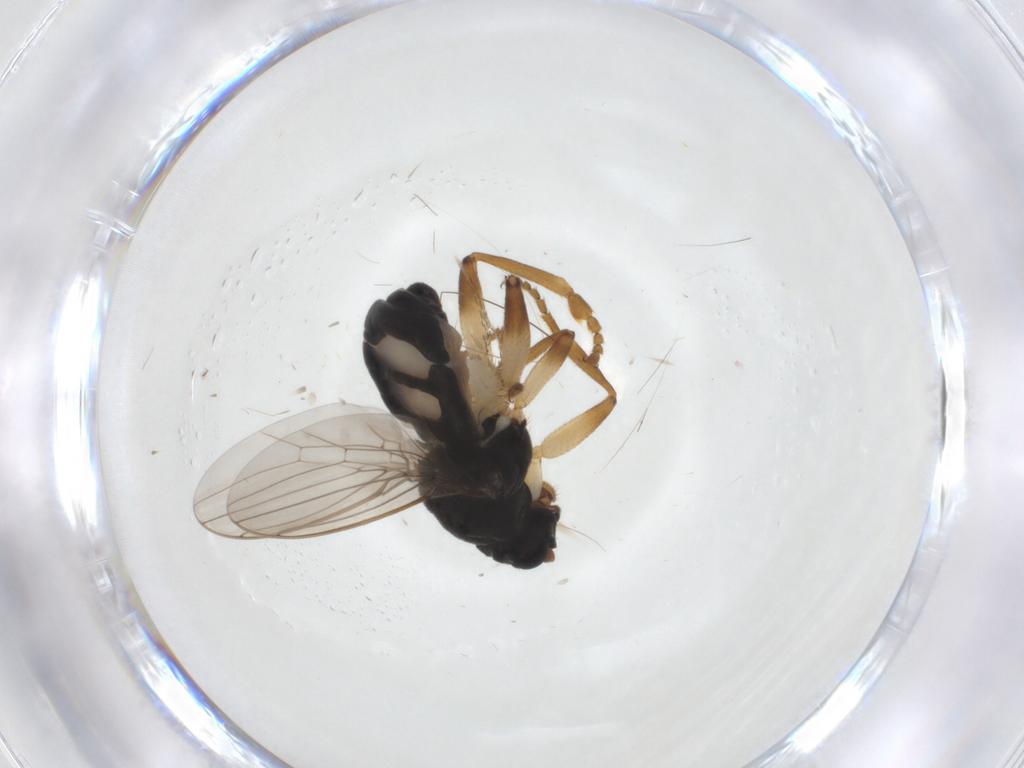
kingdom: Animalia
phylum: Arthropoda
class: Insecta
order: Diptera
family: Sphaeroceridae
